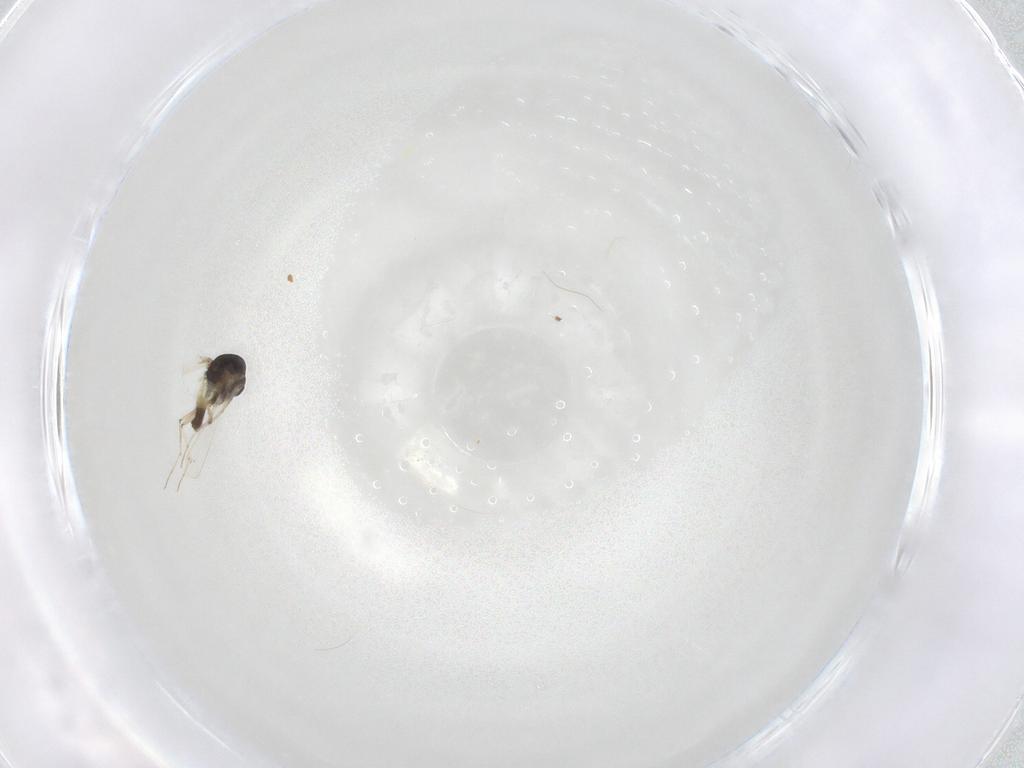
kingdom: Animalia
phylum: Arthropoda
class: Insecta
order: Diptera
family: Chironomidae
